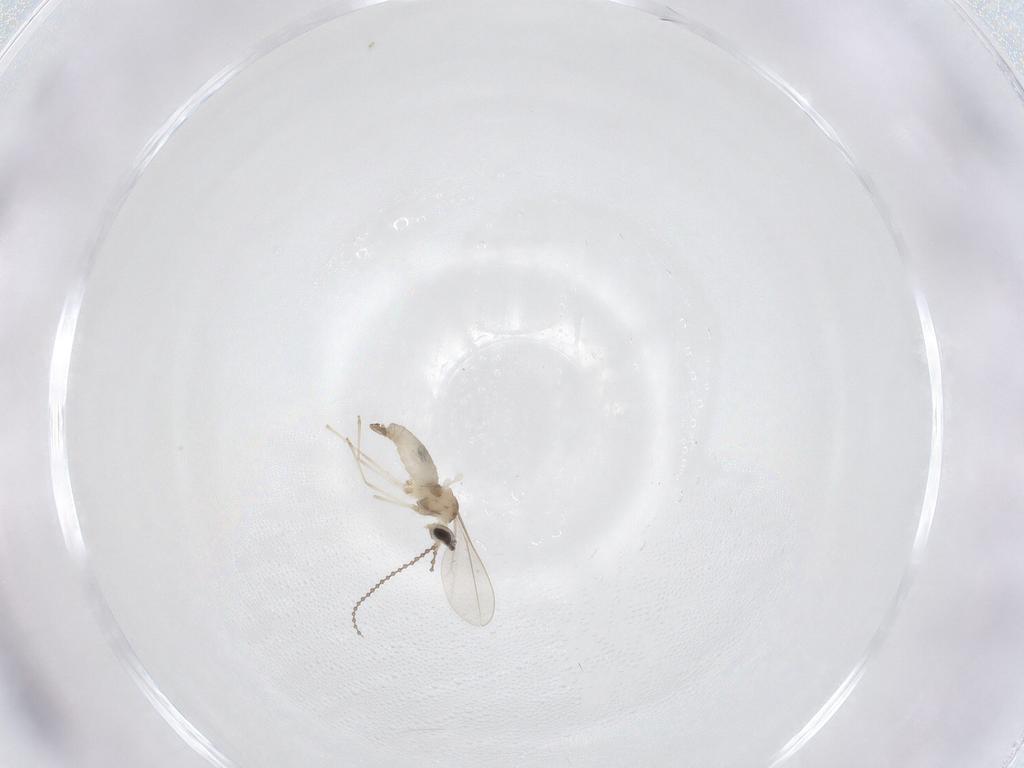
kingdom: Animalia
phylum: Arthropoda
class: Insecta
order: Diptera
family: Cecidomyiidae
